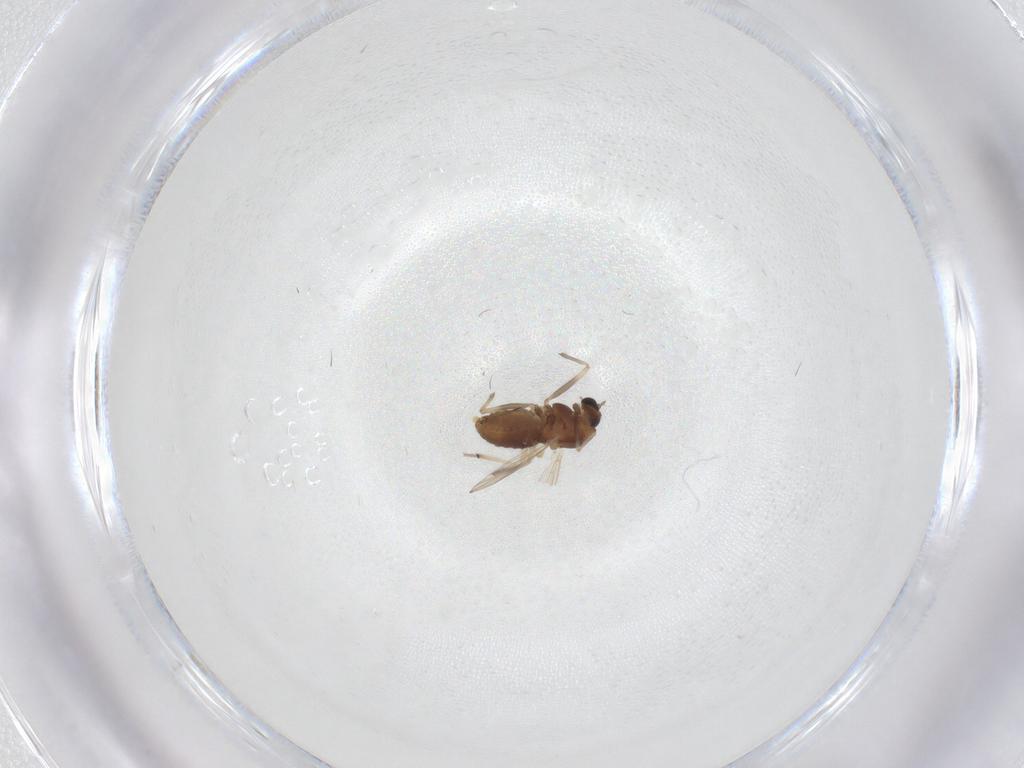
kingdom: Animalia
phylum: Arthropoda
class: Insecta
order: Diptera
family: Chironomidae
